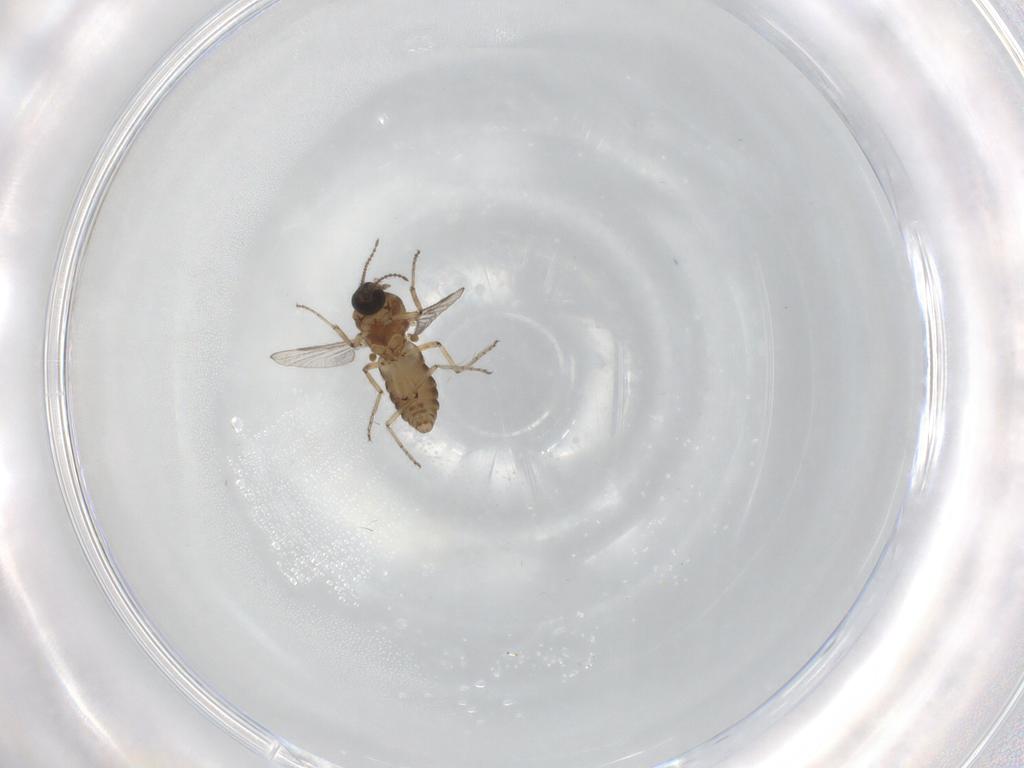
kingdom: Animalia
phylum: Arthropoda
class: Insecta
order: Diptera
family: Ceratopogonidae
